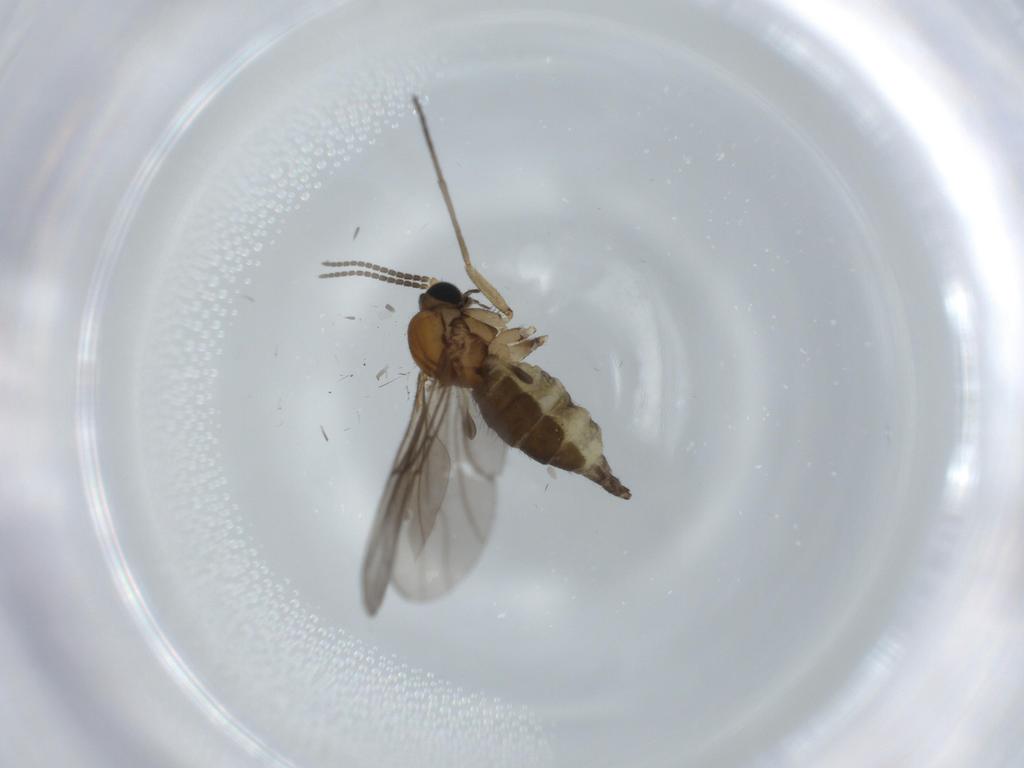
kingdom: Animalia
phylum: Arthropoda
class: Insecta
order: Diptera
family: Sciaridae
